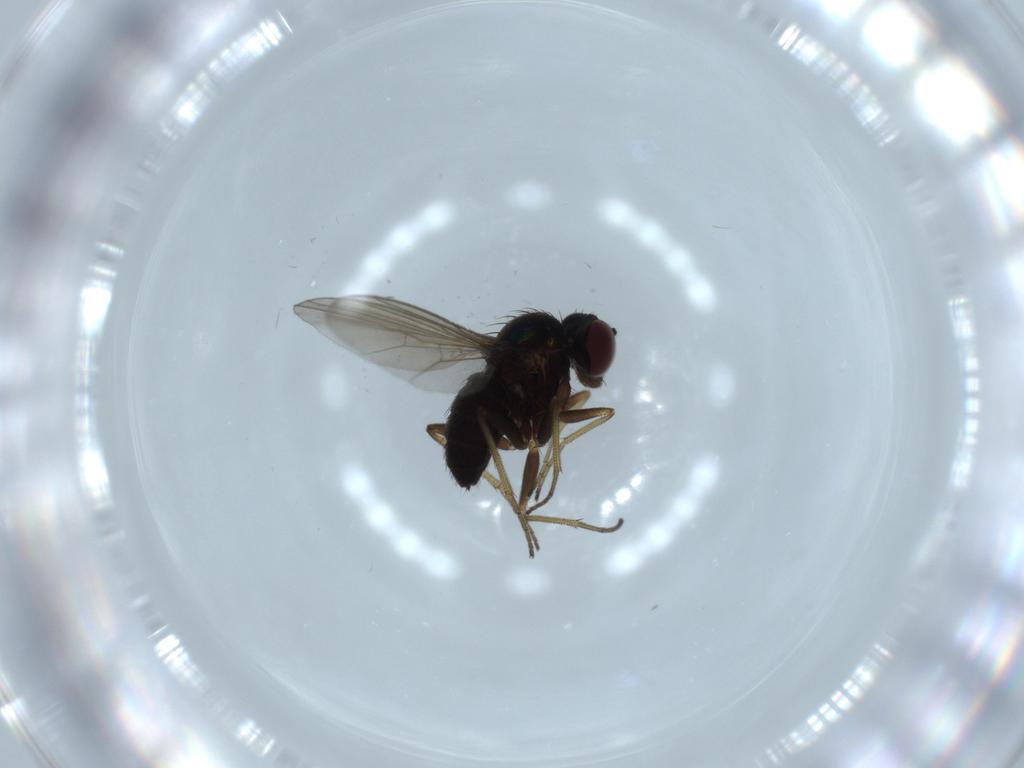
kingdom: Animalia
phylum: Arthropoda
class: Insecta
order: Diptera
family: Dolichopodidae
